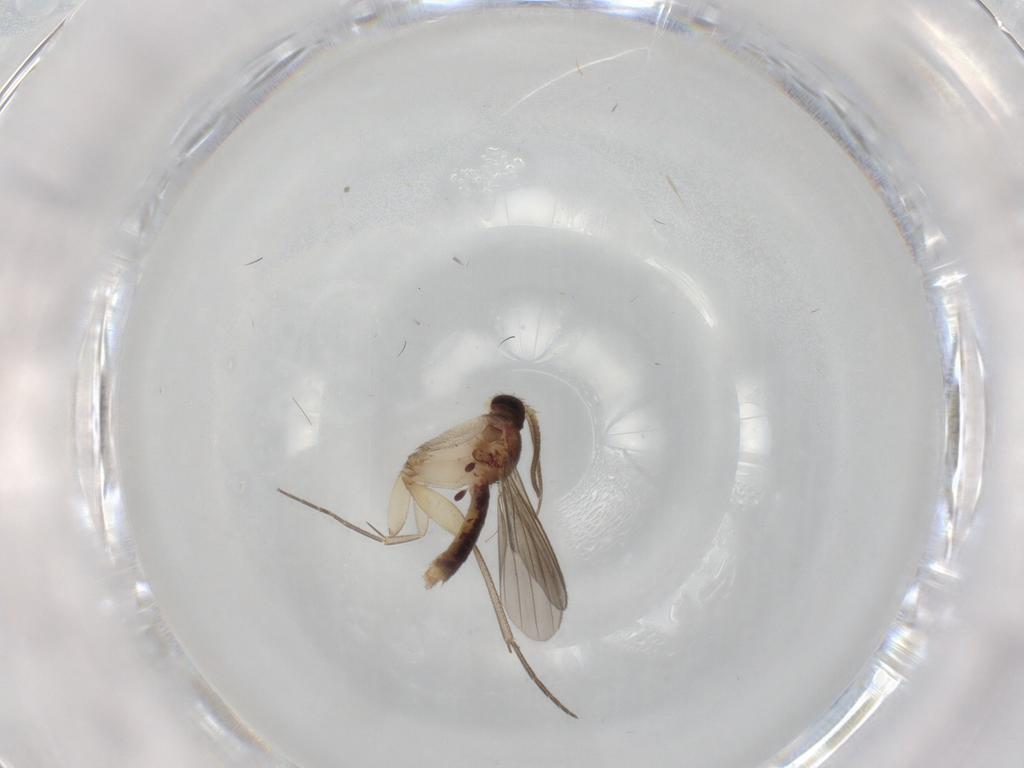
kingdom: Animalia
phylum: Arthropoda
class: Insecta
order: Diptera
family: Mycetophilidae
